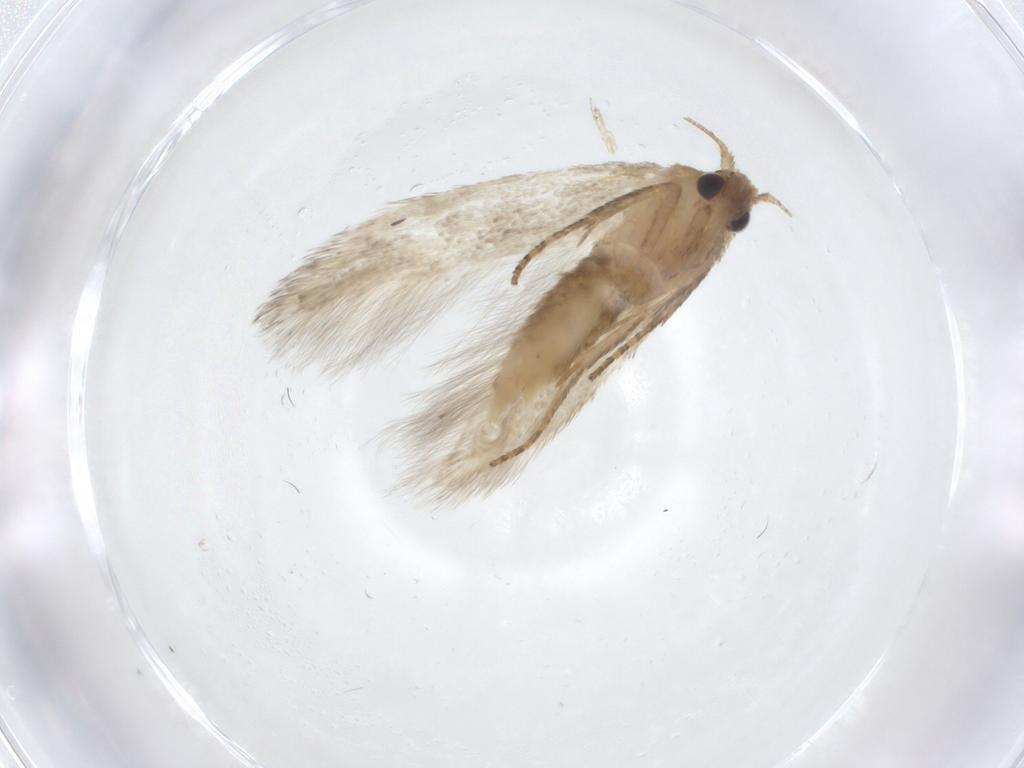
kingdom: Animalia
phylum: Arthropoda
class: Insecta
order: Lepidoptera
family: Blastobasidae
